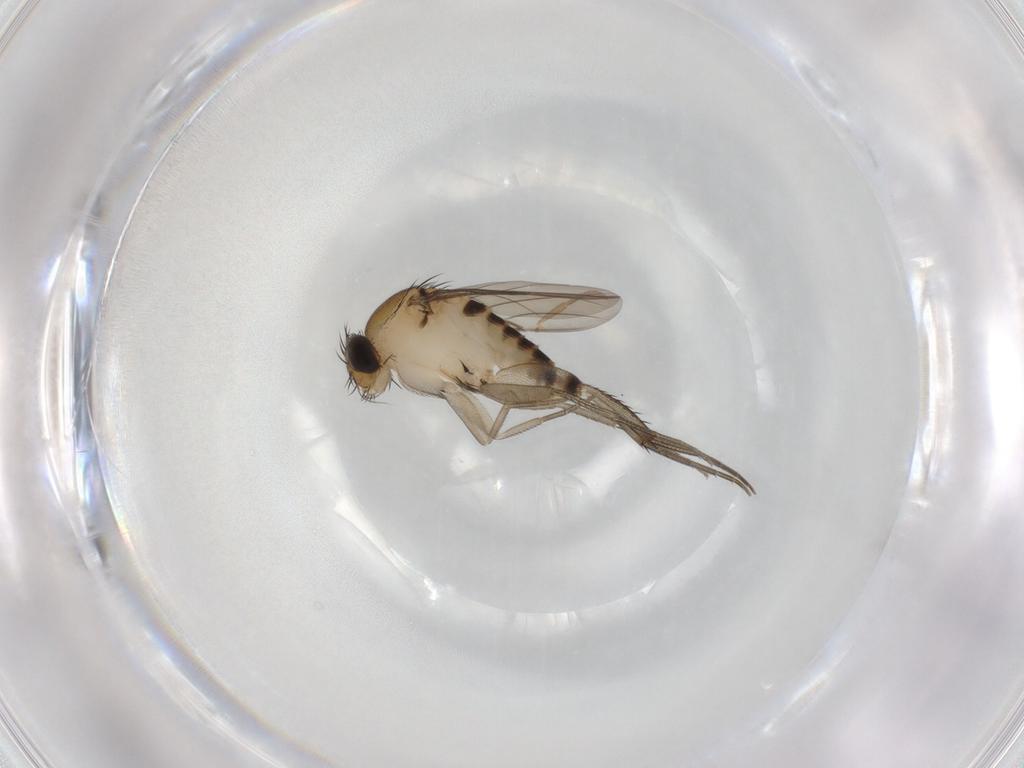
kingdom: Animalia
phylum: Arthropoda
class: Insecta
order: Diptera
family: Phoridae
